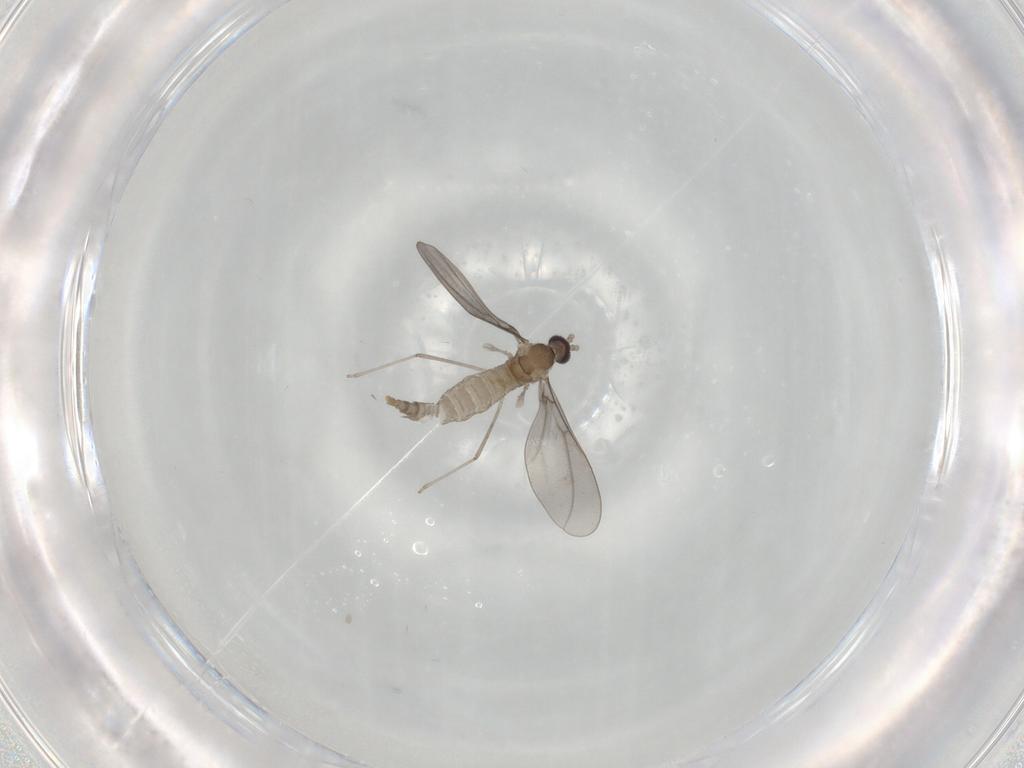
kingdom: Animalia
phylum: Arthropoda
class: Insecta
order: Diptera
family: Cecidomyiidae
